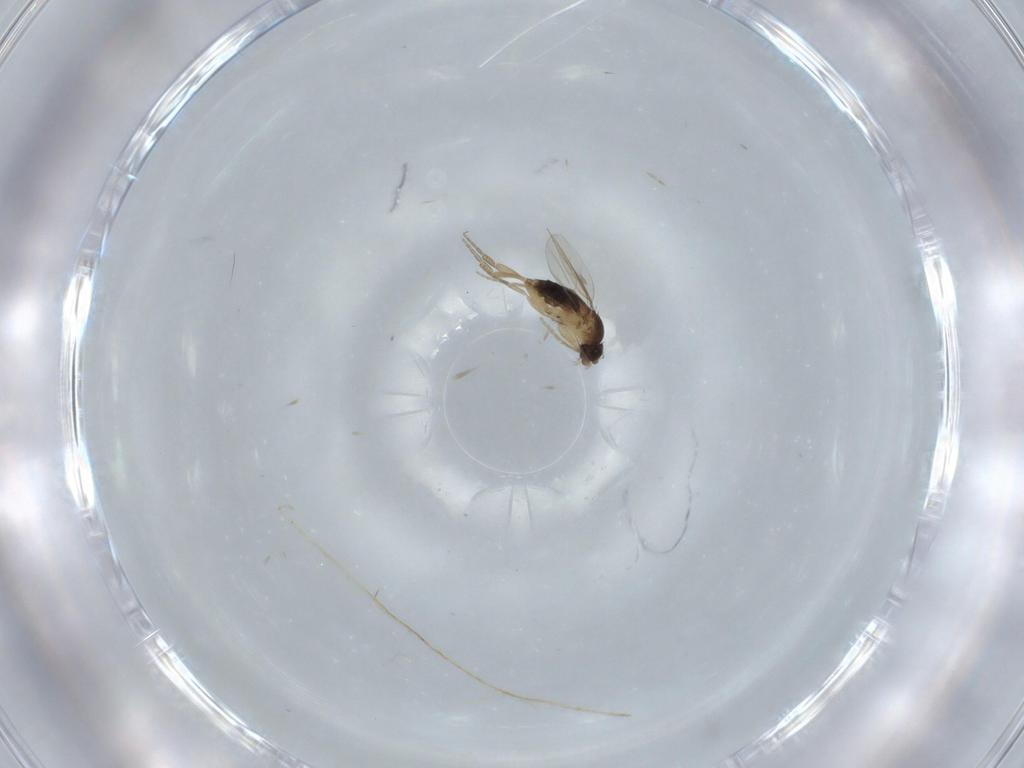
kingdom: Animalia
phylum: Arthropoda
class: Insecta
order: Diptera
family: Phoridae
